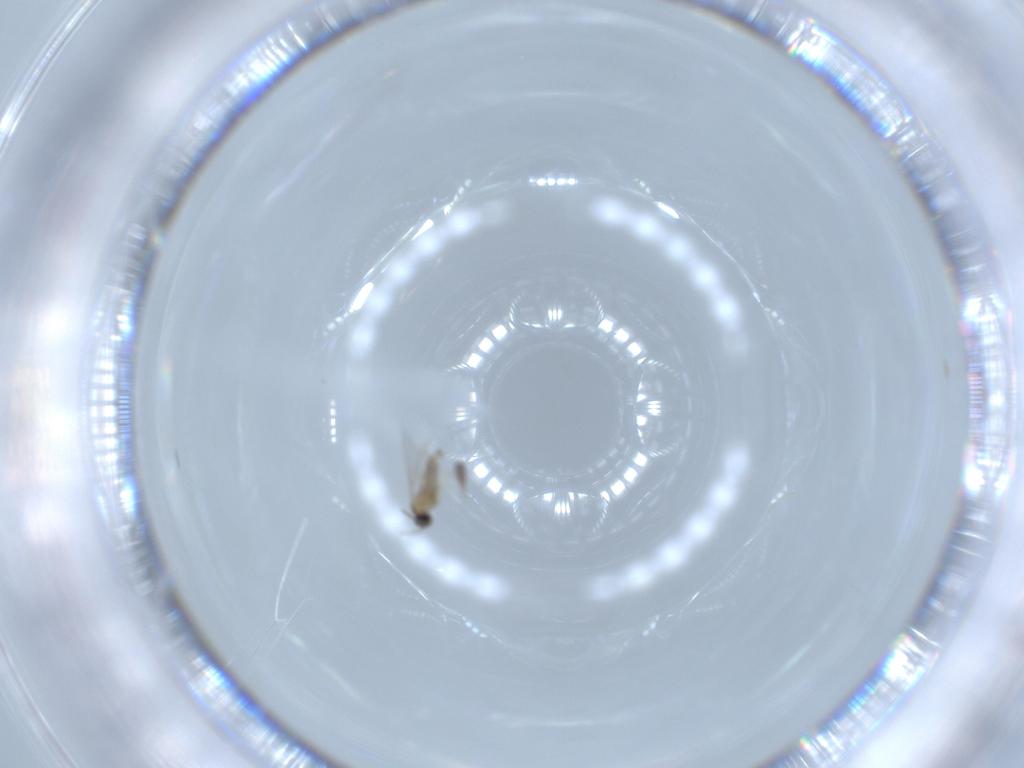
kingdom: Animalia
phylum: Arthropoda
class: Insecta
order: Diptera
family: Cecidomyiidae
